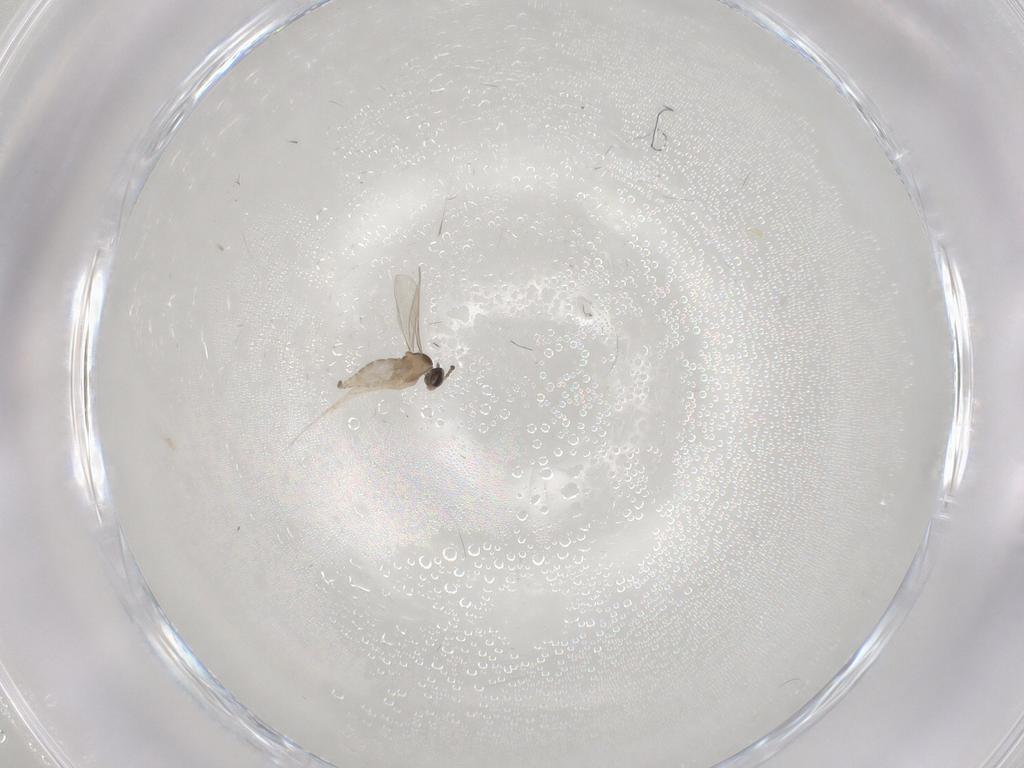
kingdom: Animalia
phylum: Arthropoda
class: Insecta
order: Diptera
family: Cecidomyiidae
